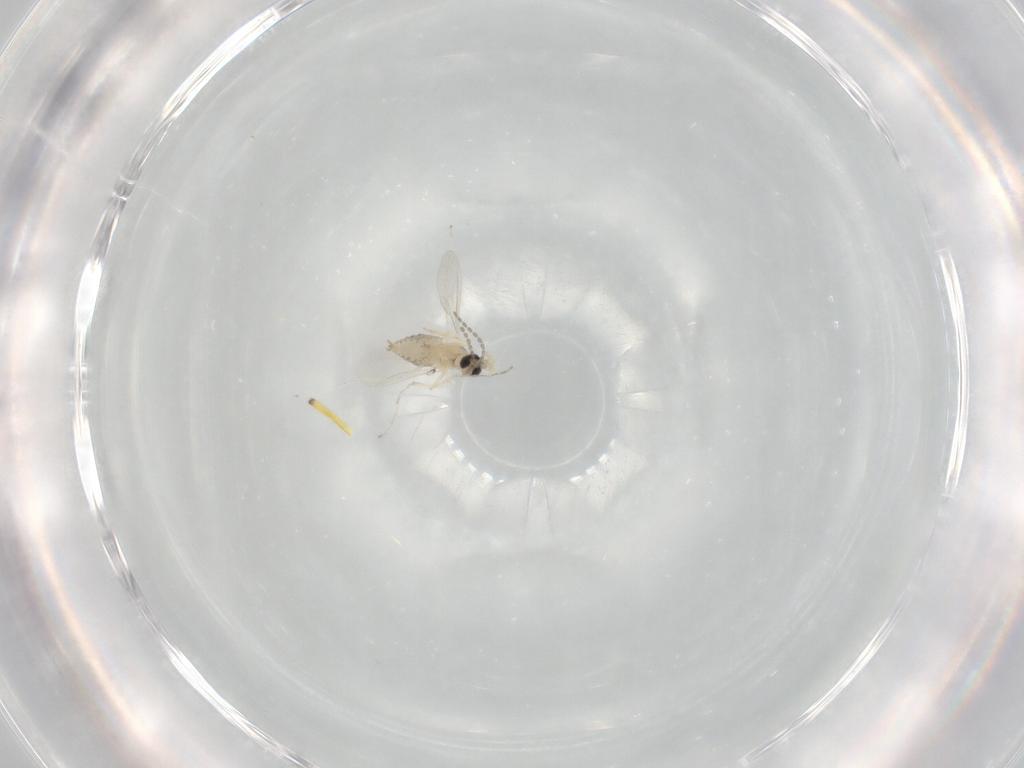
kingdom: Animalia
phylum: Arthropoda
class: Insecta
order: Diptera
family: Cecidomyiidae
